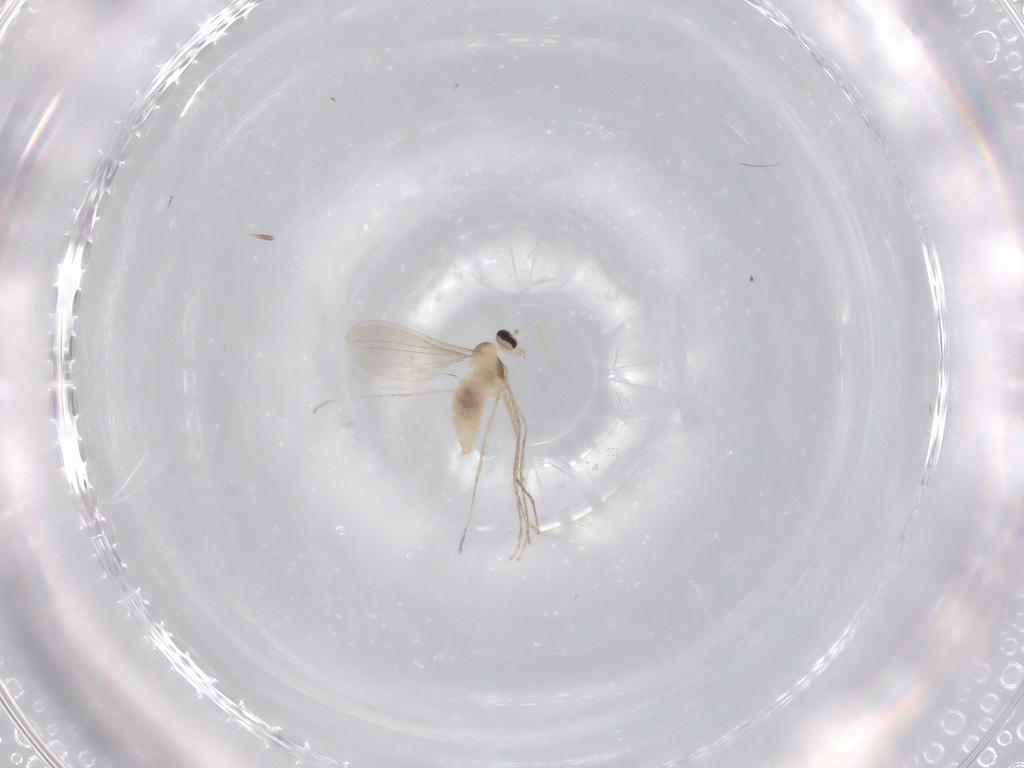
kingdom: Animalia
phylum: Arthropoda
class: Insecta
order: Diptera
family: Cecidomyiidae
